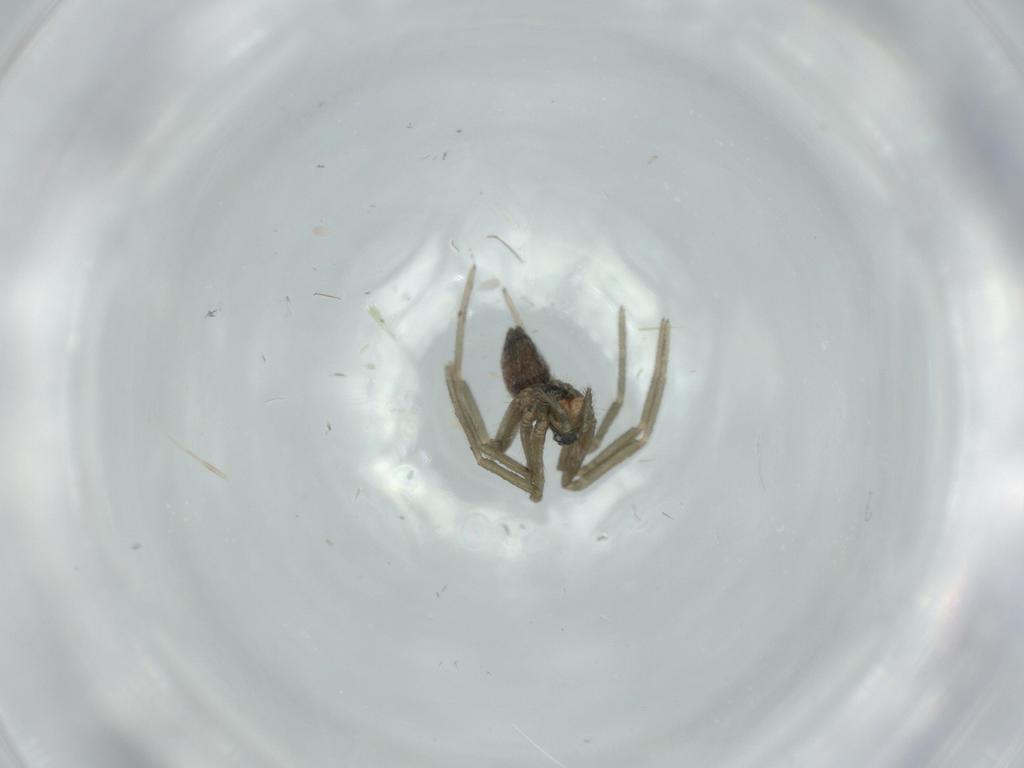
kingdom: Animalia
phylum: Arthropoda
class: Arachnida
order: Araneae
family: Linyphiidae
